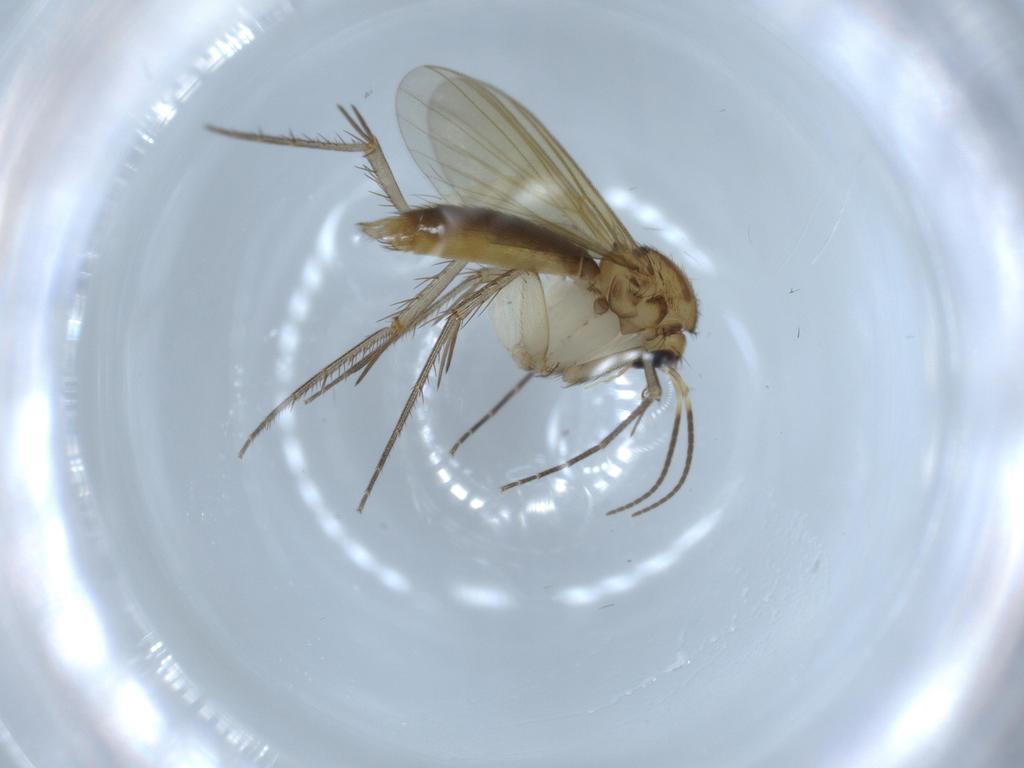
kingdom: Animalia
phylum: Arthropoda
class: Insecta
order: Diptera
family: Mycetophilidae
